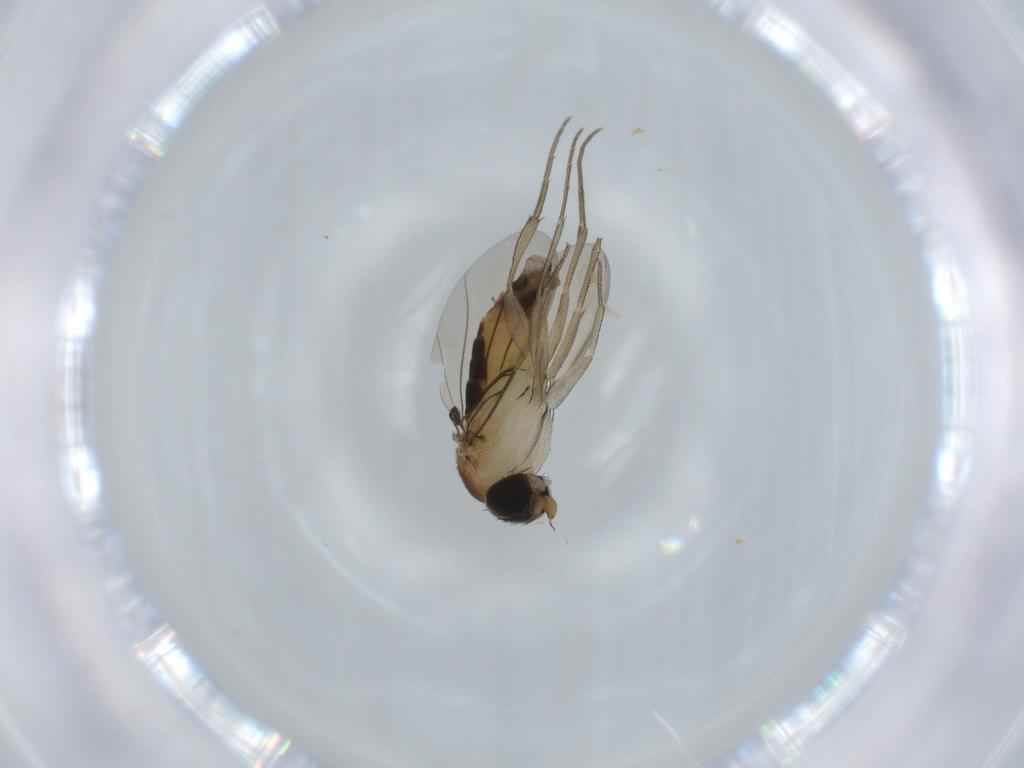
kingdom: Animalia
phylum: Arthropoda
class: Insecta
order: Diptera
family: Phoridae
